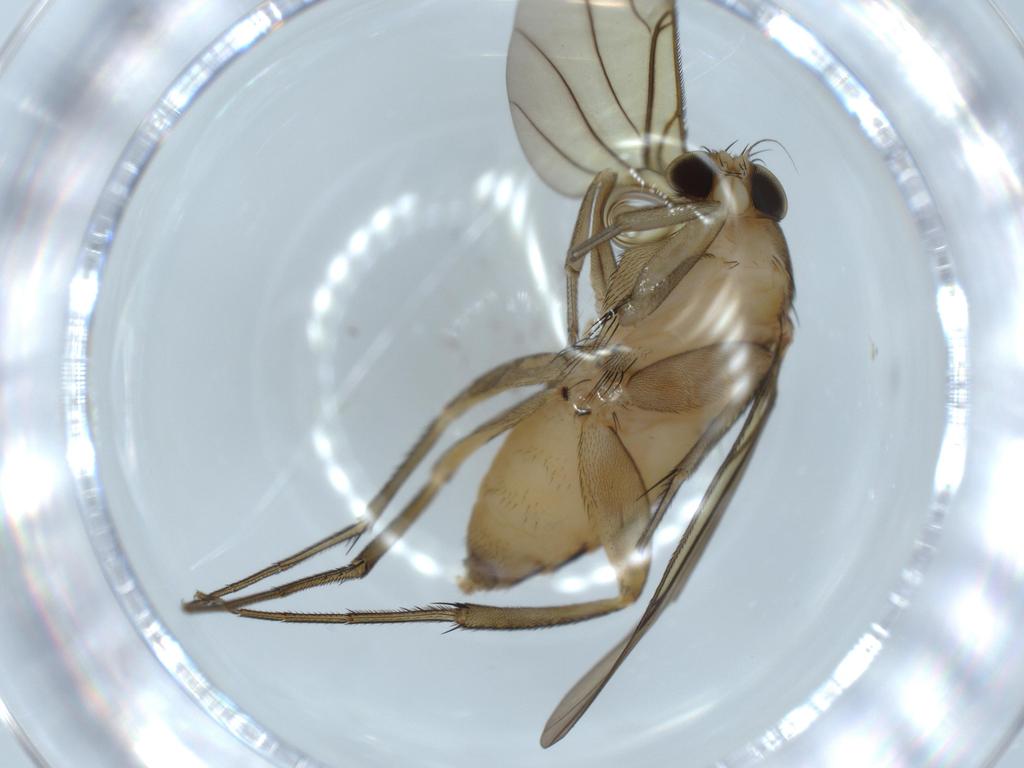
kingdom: Animalia
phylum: Arthropoda
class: Insecta
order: Diptera
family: Phoridae
